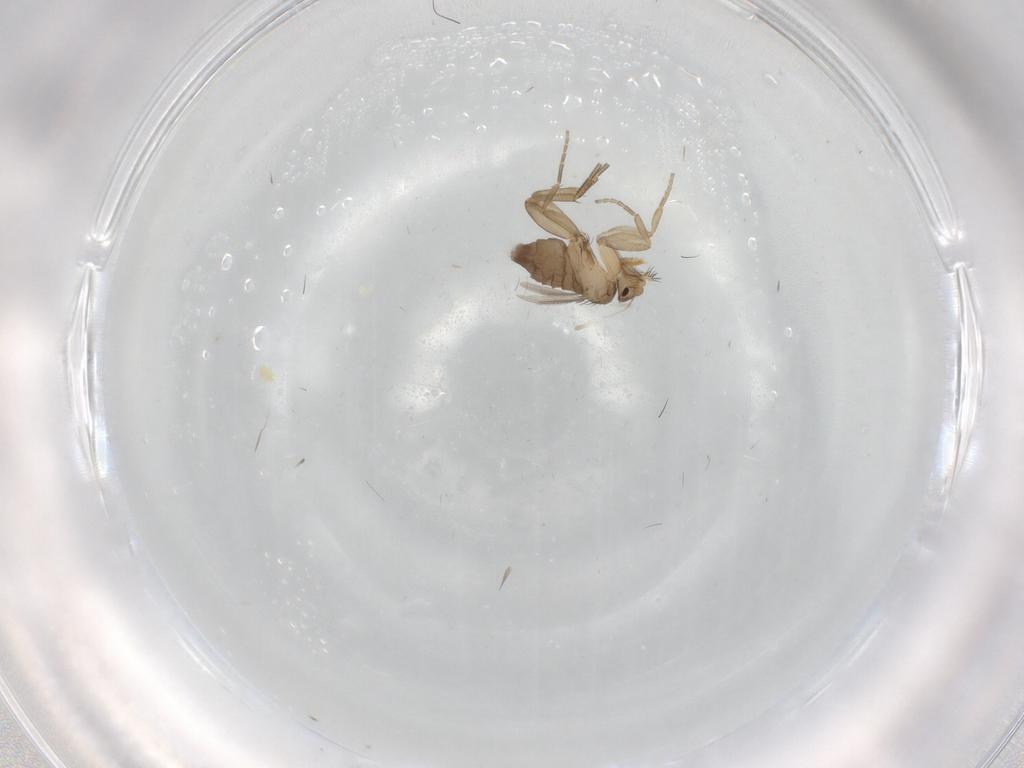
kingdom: Animalia
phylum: Arthropoda
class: Insecta
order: Diptera
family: Phoridae
